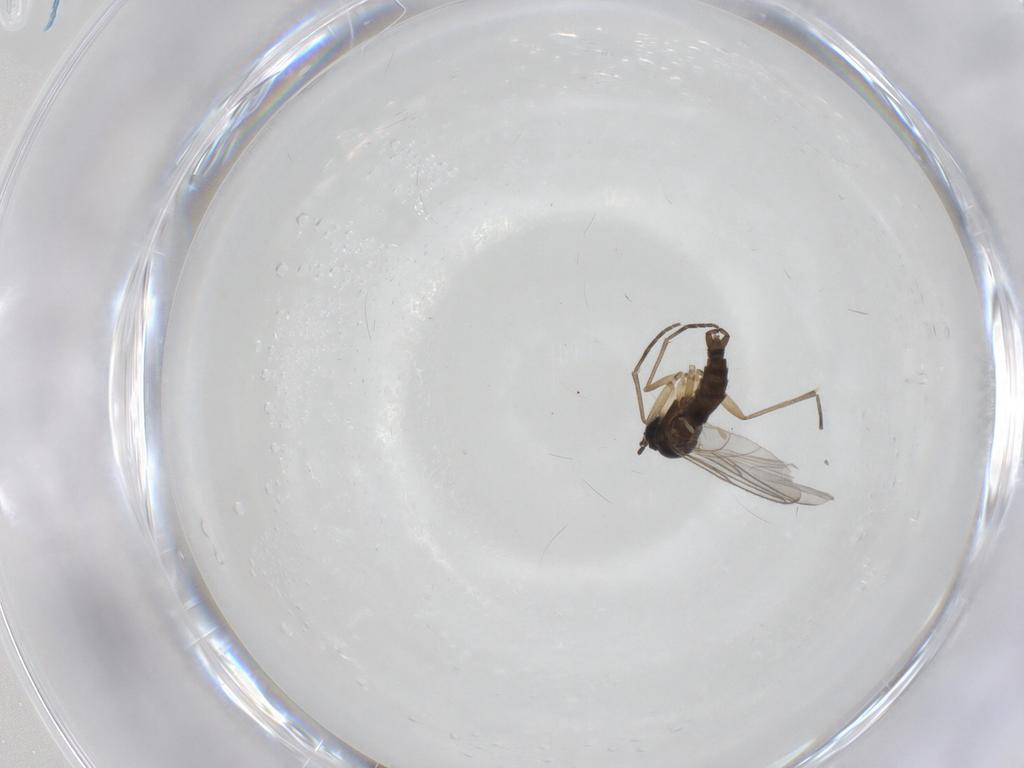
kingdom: Animalia
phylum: Arthropoda
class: Insecta
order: Diptera
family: Sciaridae
